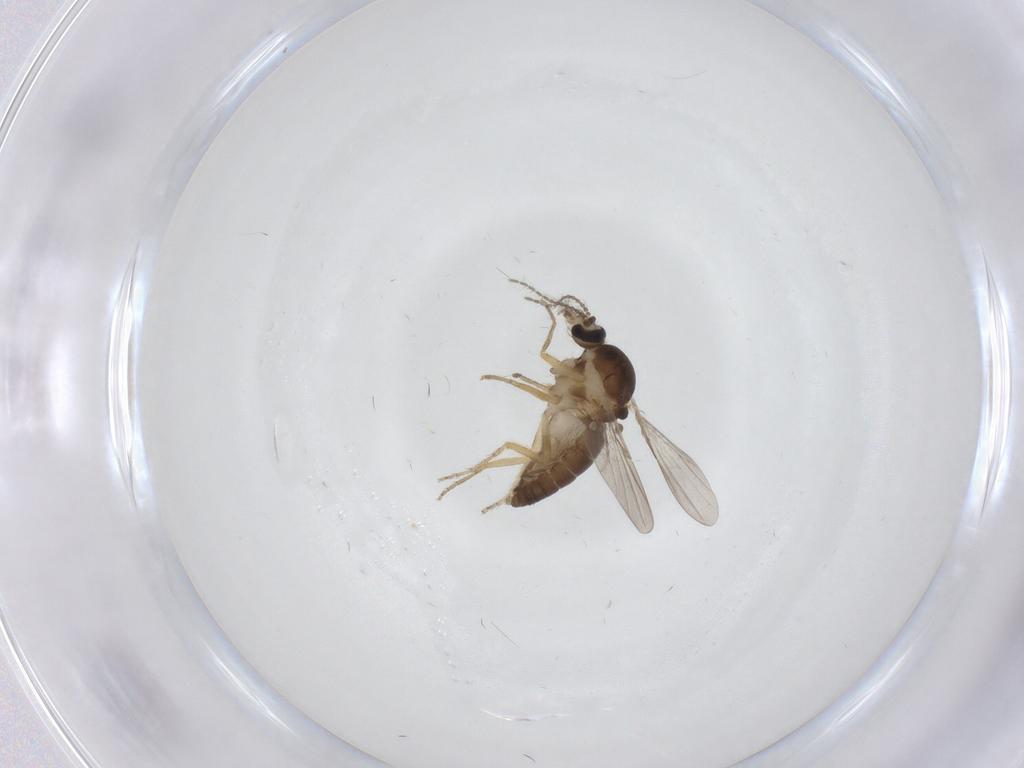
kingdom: Animalia
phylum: Arthropoda
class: Insecta
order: Diptera
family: Ceratopogonidae
